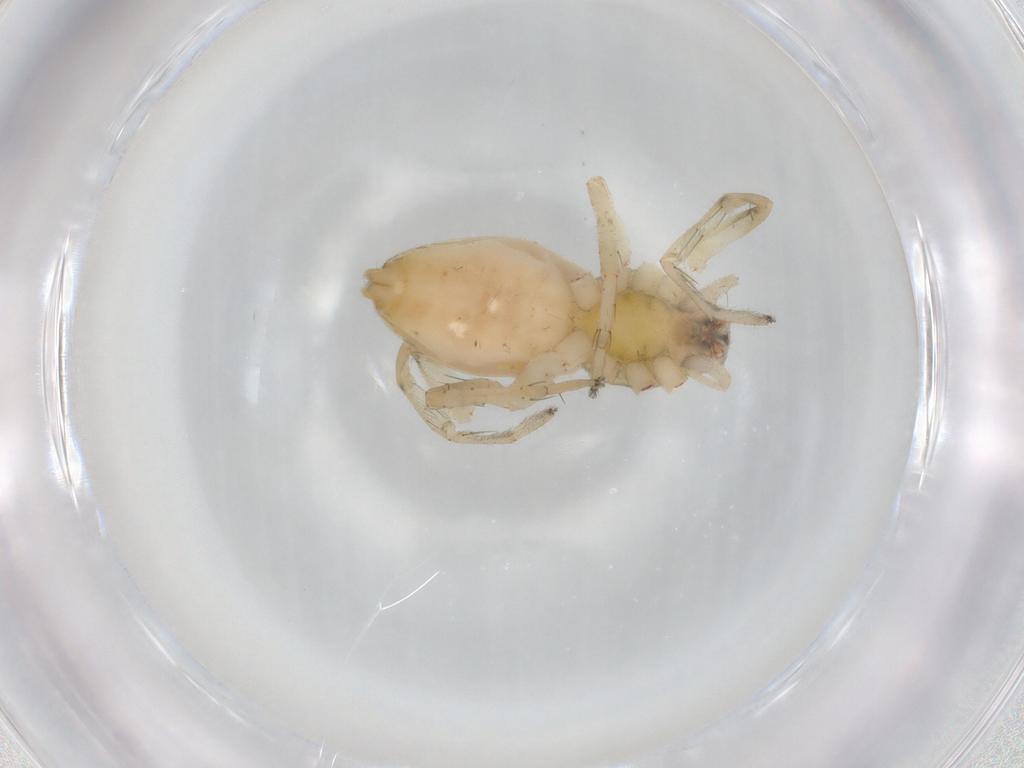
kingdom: Animalia
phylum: Arthropoda
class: Arachnida
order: Araneae
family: Anyphaenidae
